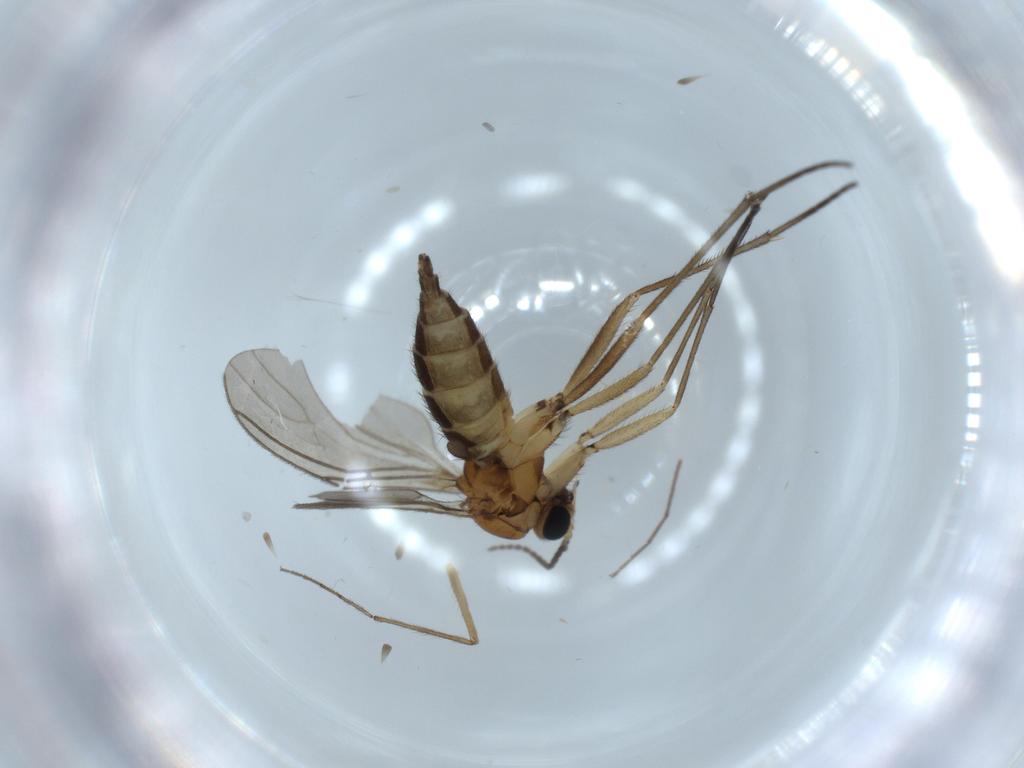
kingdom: Animalia
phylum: Arthropoda
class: Insecta
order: Diptera
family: Sciaridae
